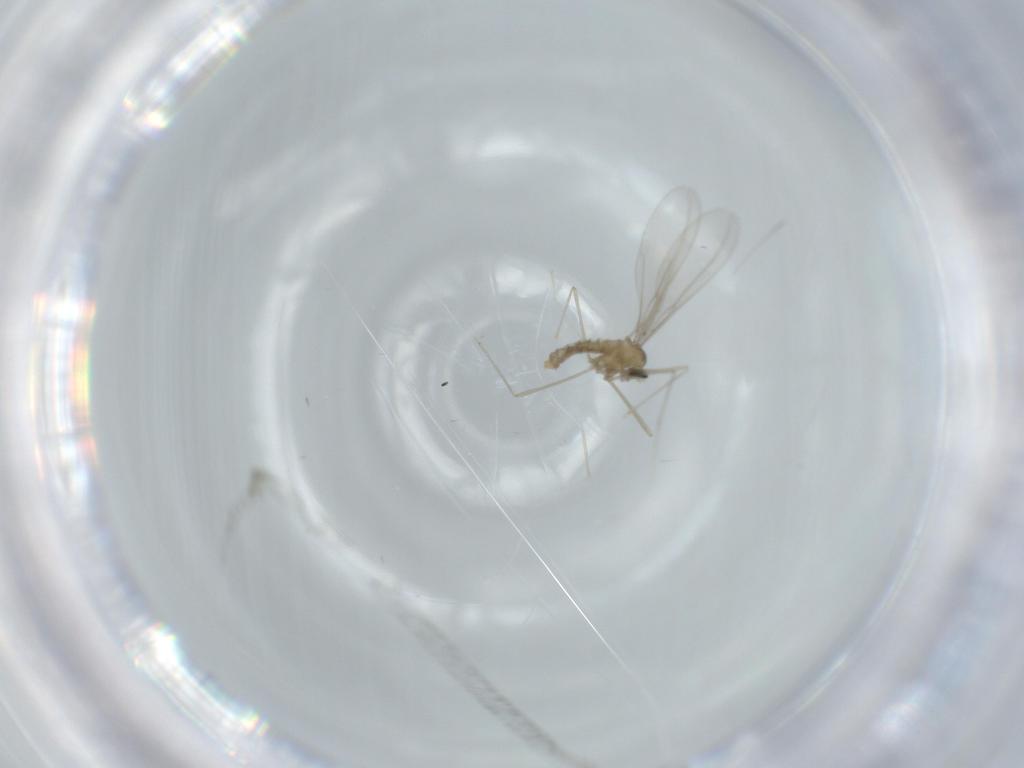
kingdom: Animalia
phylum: Arthropoda
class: Insecta
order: Diptera
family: Cecidomyiidae
